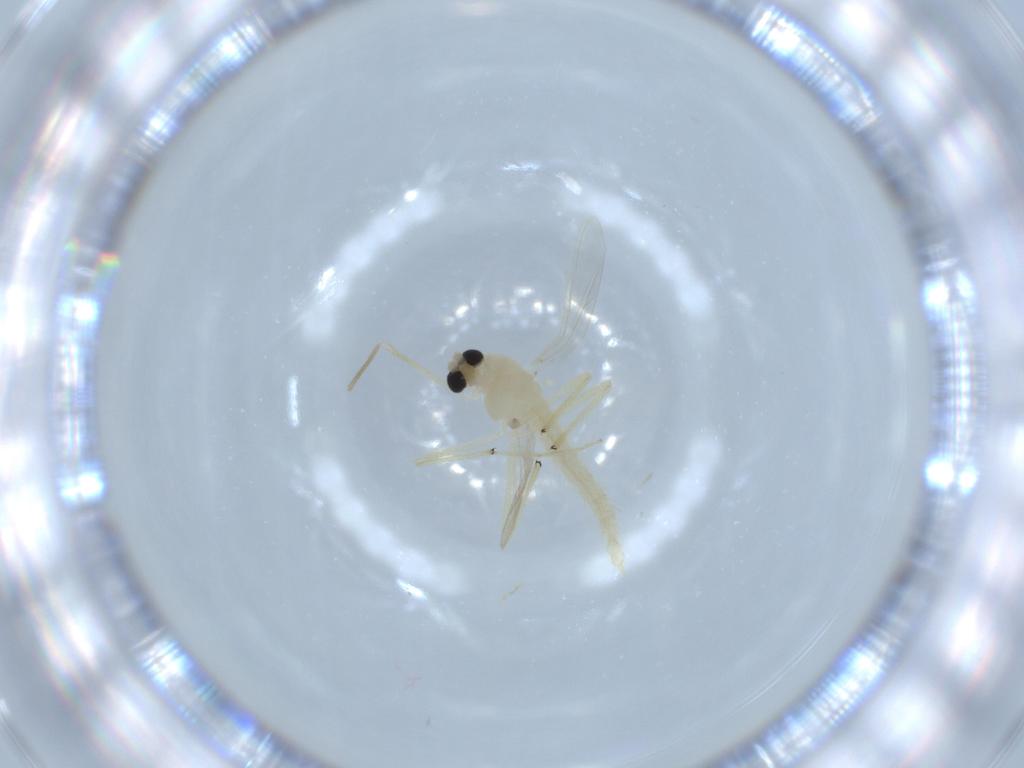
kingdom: Animalia
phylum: Arthropoda
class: Insecta
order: Diptera
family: Chironomidae
